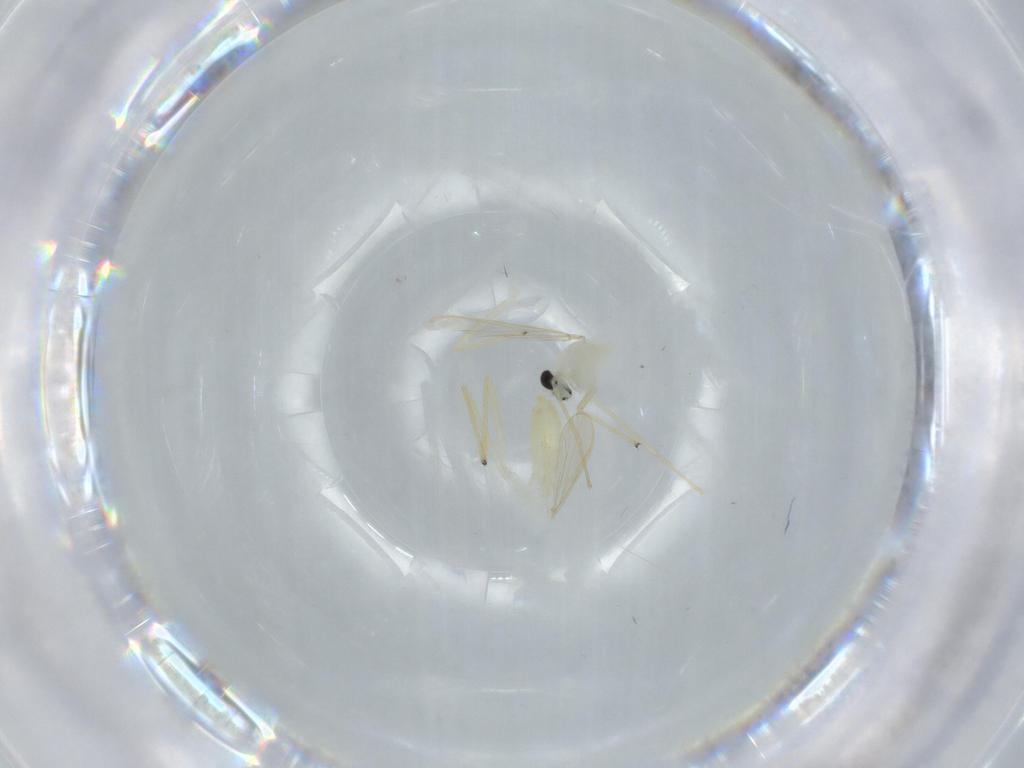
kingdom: Animalia
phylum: Arthropoda
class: Insecta
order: Diptera
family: Chironomidae
